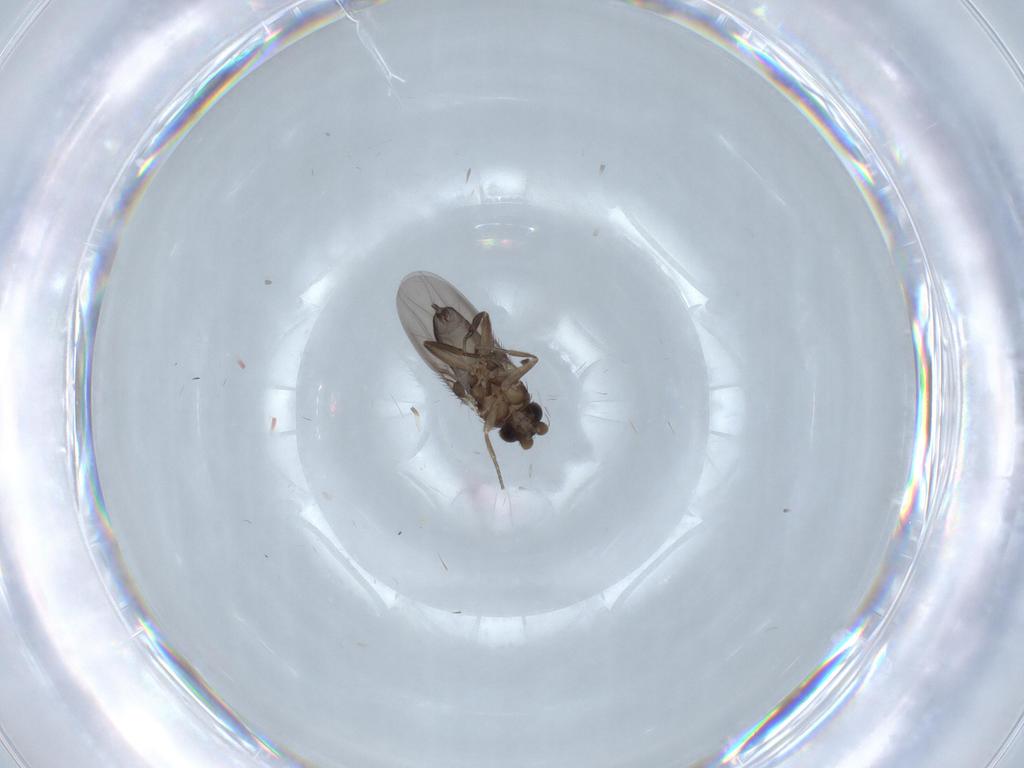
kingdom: Animalia
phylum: Arthropoda
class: Insecta
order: Diptera
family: Phoridae
